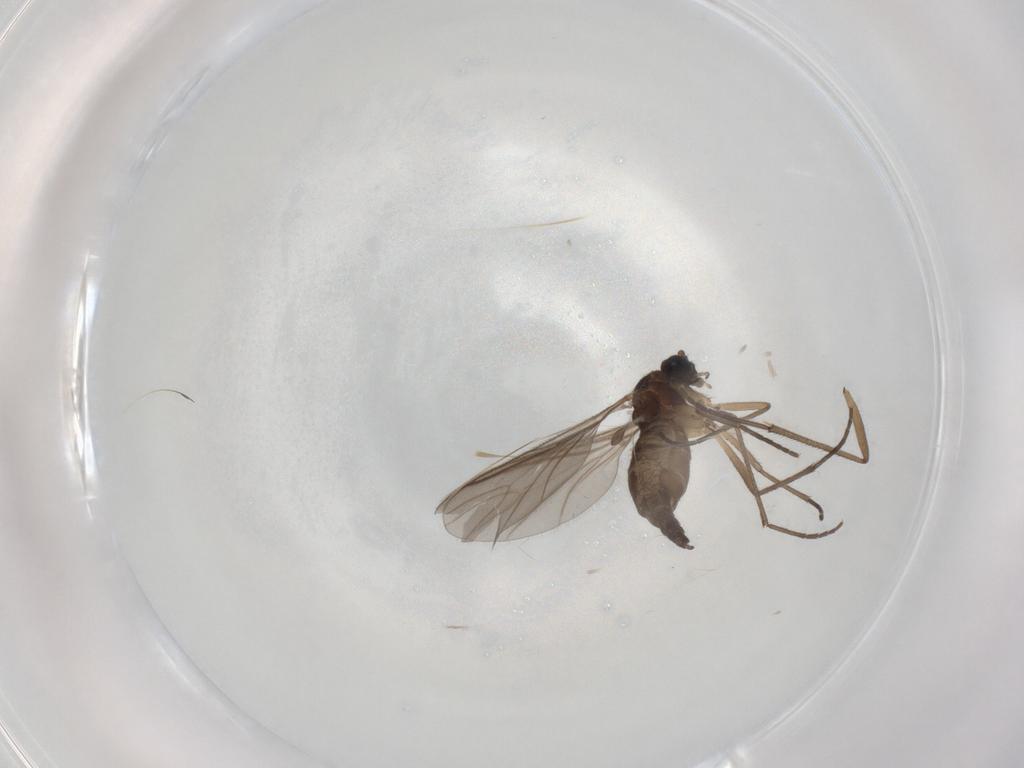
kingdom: Animalia
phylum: Arthropoda
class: Insecta
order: Diptera
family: Sciaridae
